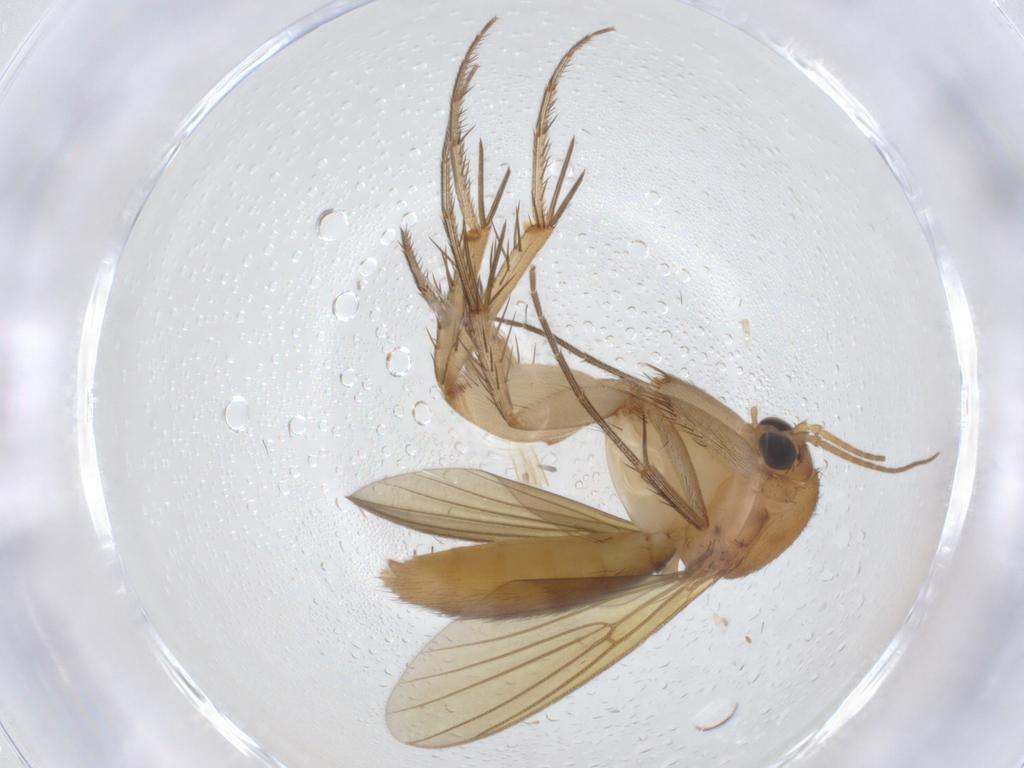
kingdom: Animalia
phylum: Arthropoda
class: Insecta
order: Diptera
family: Mycetophilidae
